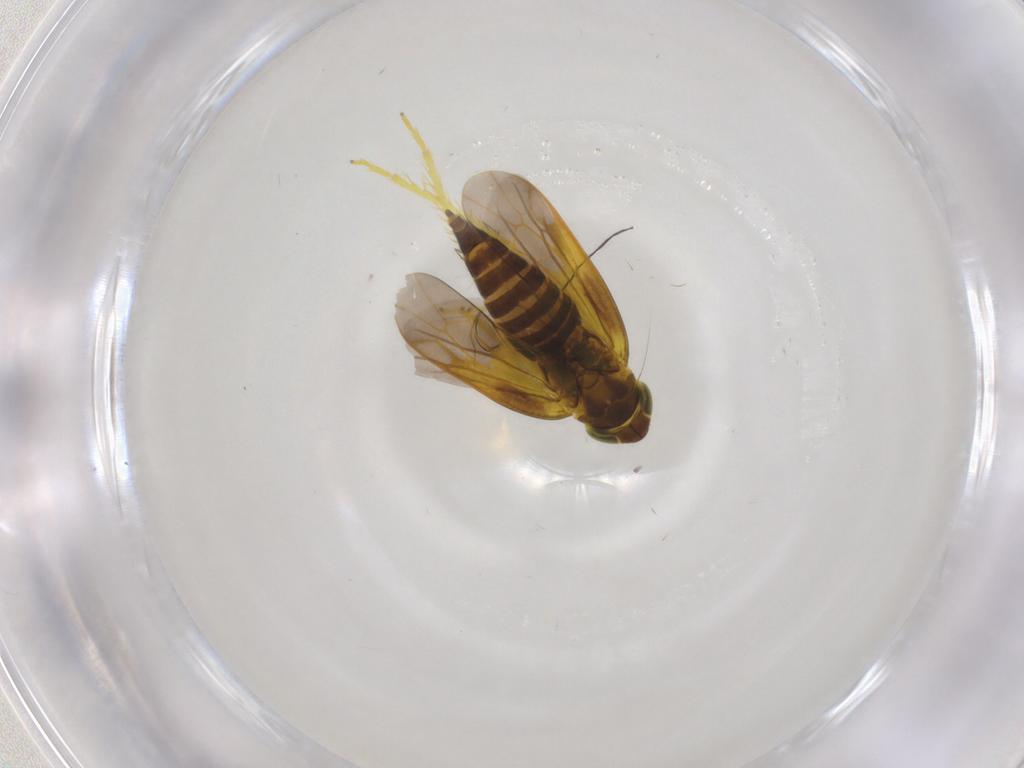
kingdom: Animalia
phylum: Arthropoda
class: Insecta
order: Hemiptera
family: Cicadellidae
